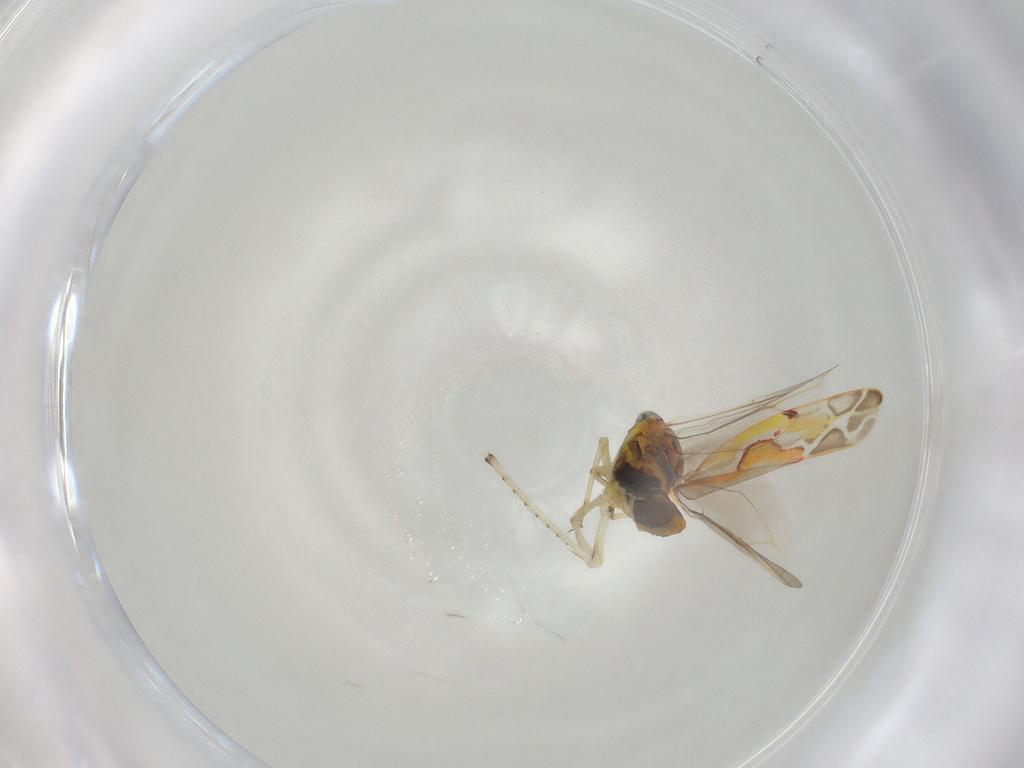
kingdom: Animalia
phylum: Arthropoda
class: Insecta
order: Hemiptera
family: Cicadellidae
